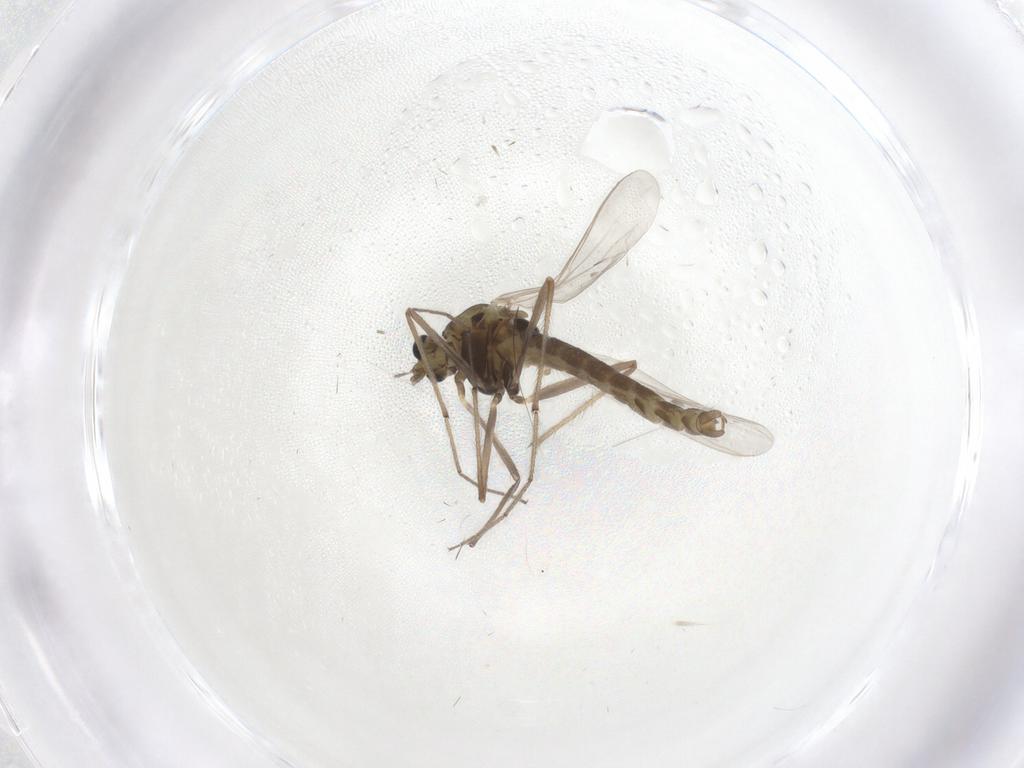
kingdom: Animalia
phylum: Arthropoda
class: Insecta
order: Diptera
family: Chironomidae
